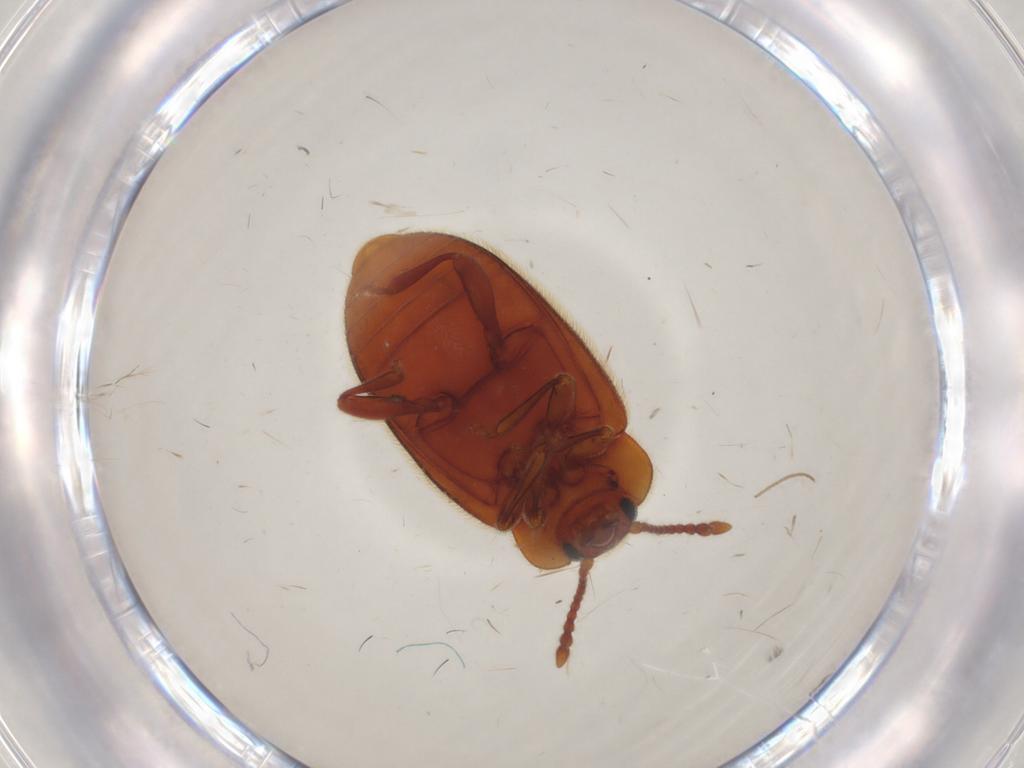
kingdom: Animalia
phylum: Arthropoda
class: Insecta
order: Coleoptera
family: Endomychidae
